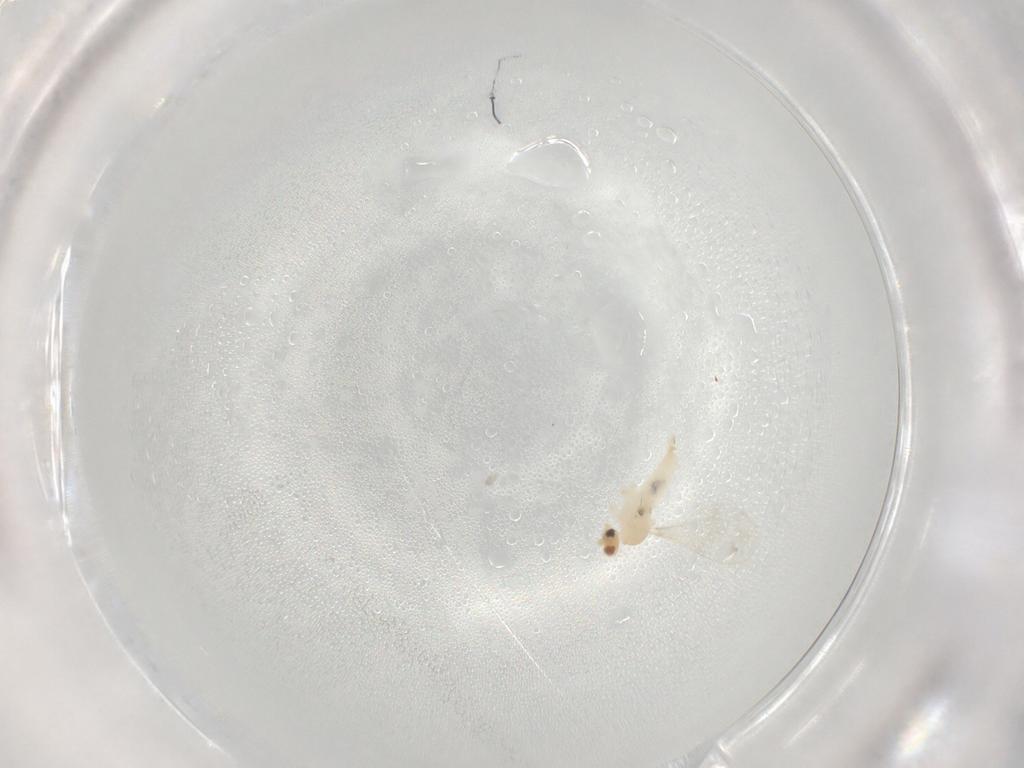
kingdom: Animalia
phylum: Arthropoda
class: Insecta
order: Diptera
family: Cecidomyiidae
